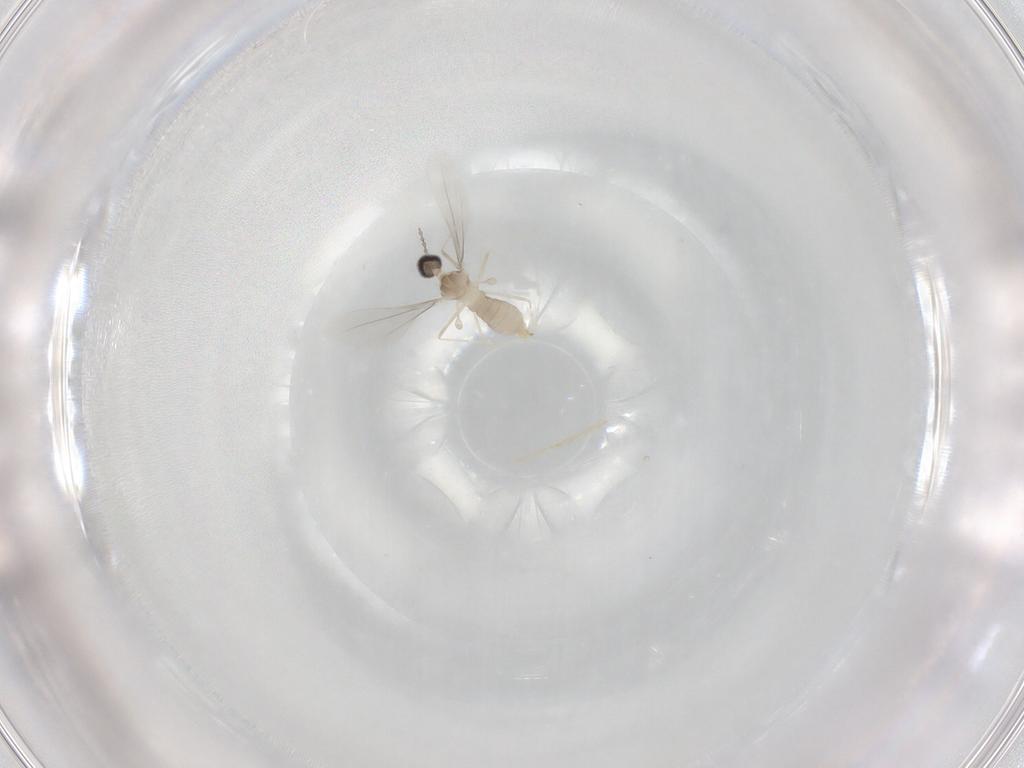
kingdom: Animalia
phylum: Arthropoda
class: Insecta
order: Diptera
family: Cecidomyiidae
